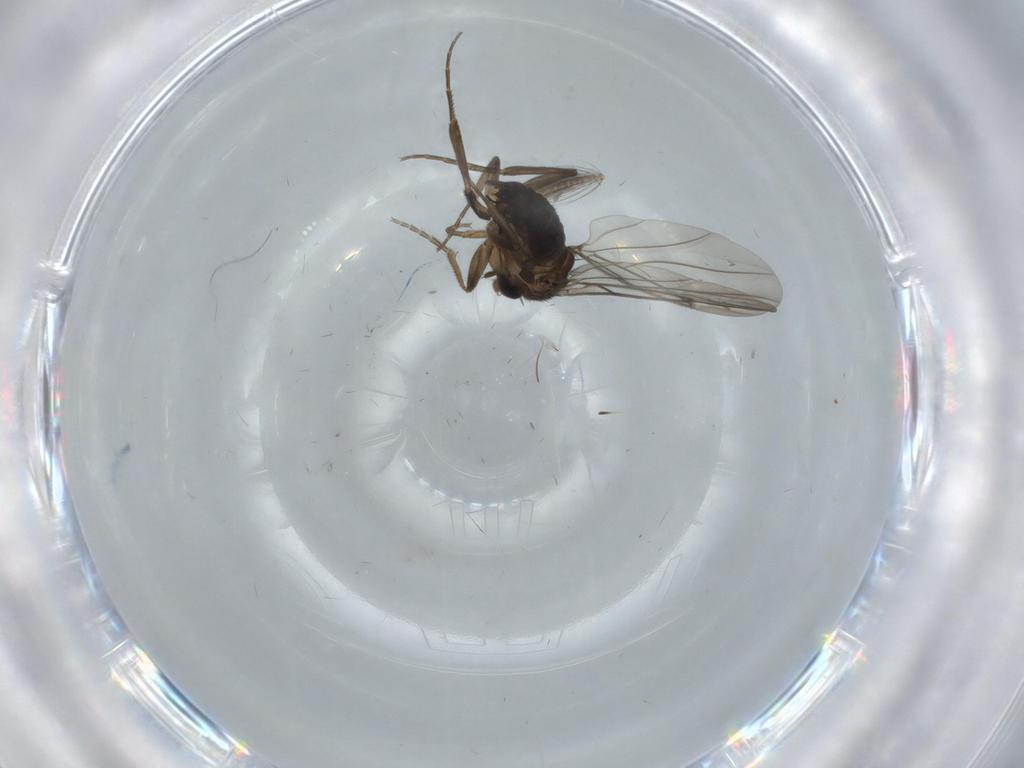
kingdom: Animalia
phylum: Arthropoda
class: Insecta
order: Diptera
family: Ceratopogonidae
